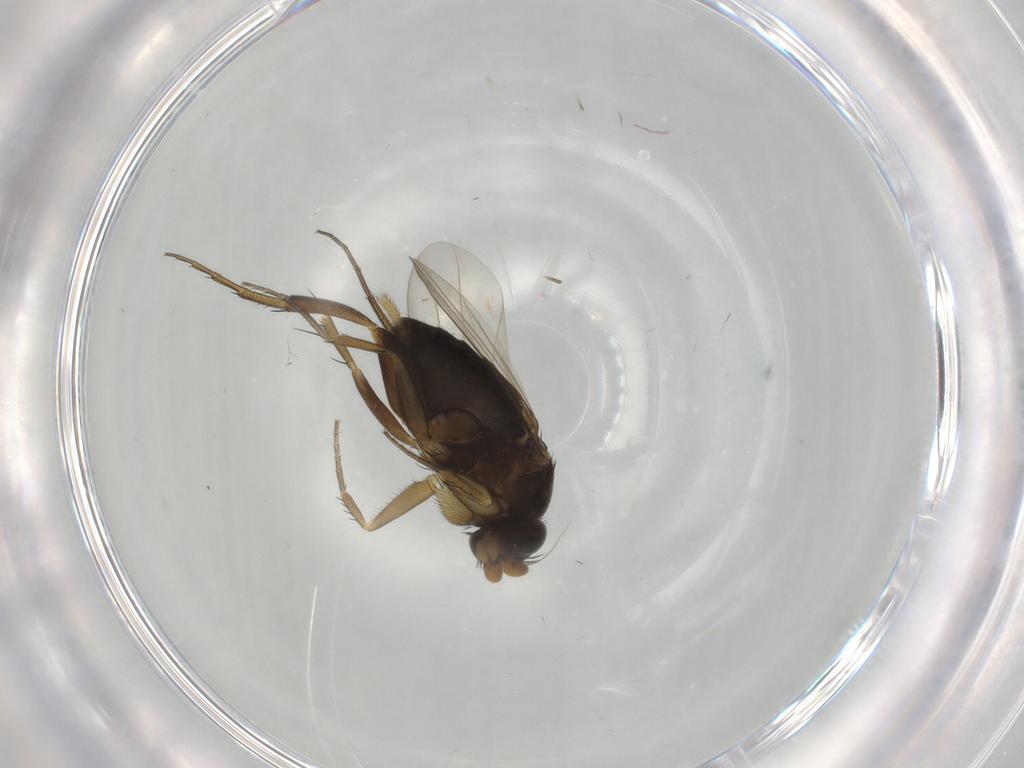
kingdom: Animalia
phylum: Arthropoda
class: Insecta
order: Diptera
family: Phoridae
